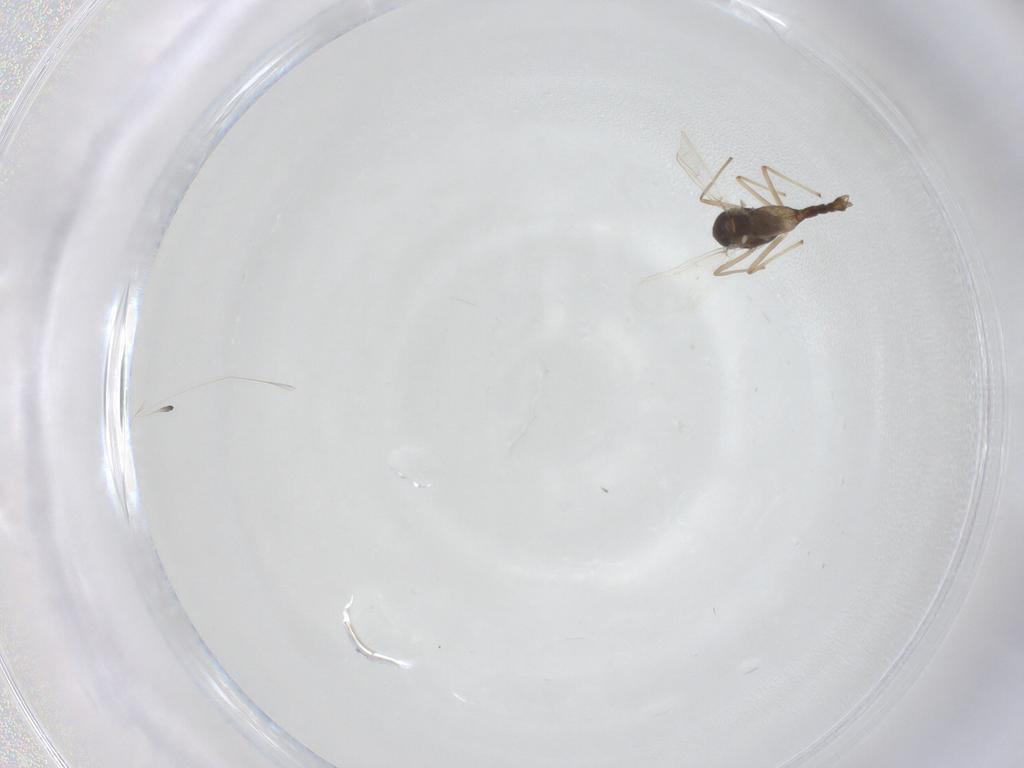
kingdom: Animalia
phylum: Arthropoda
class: Insecta
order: Diptera
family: Chironomidae
